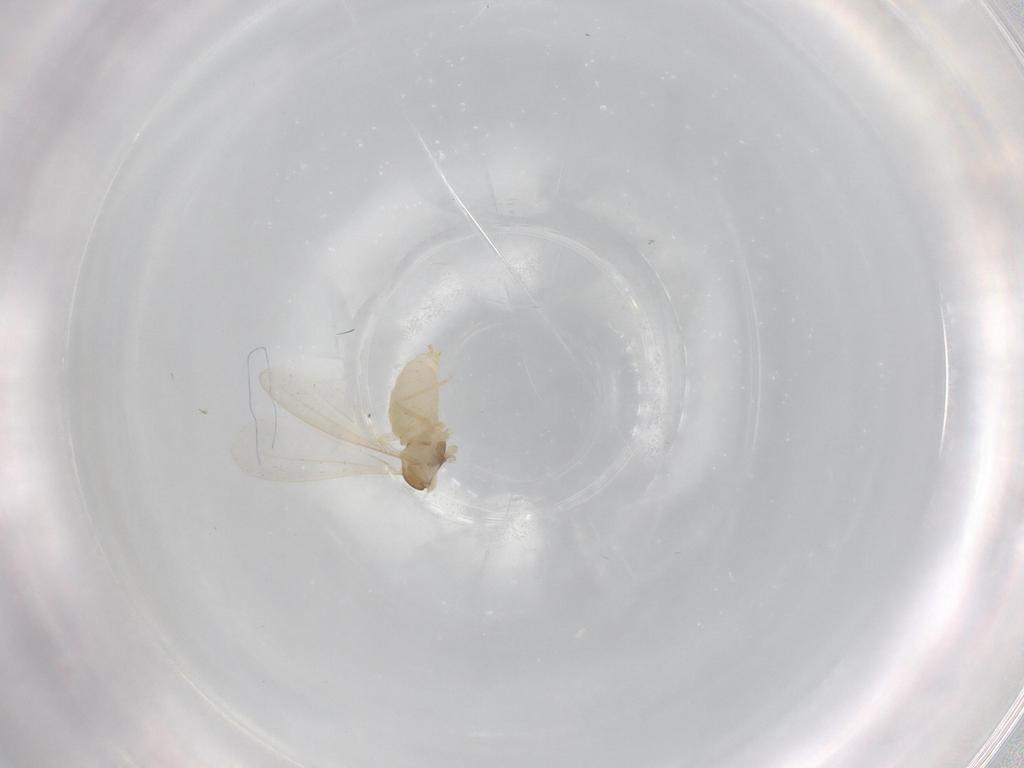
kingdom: Animalia
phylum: Arthropoda
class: Insecta
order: Diptera
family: Cecidomyiidae
